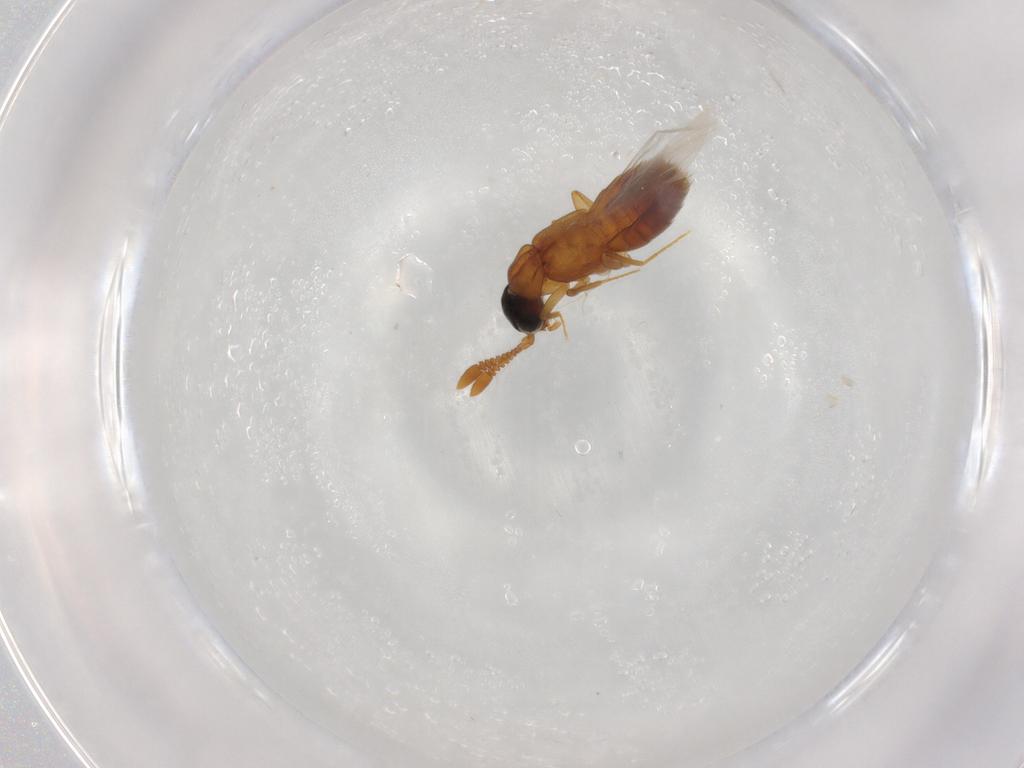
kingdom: Animalia
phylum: Arthropoda
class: Insecta
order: Coleoptera
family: Staphylinidae
